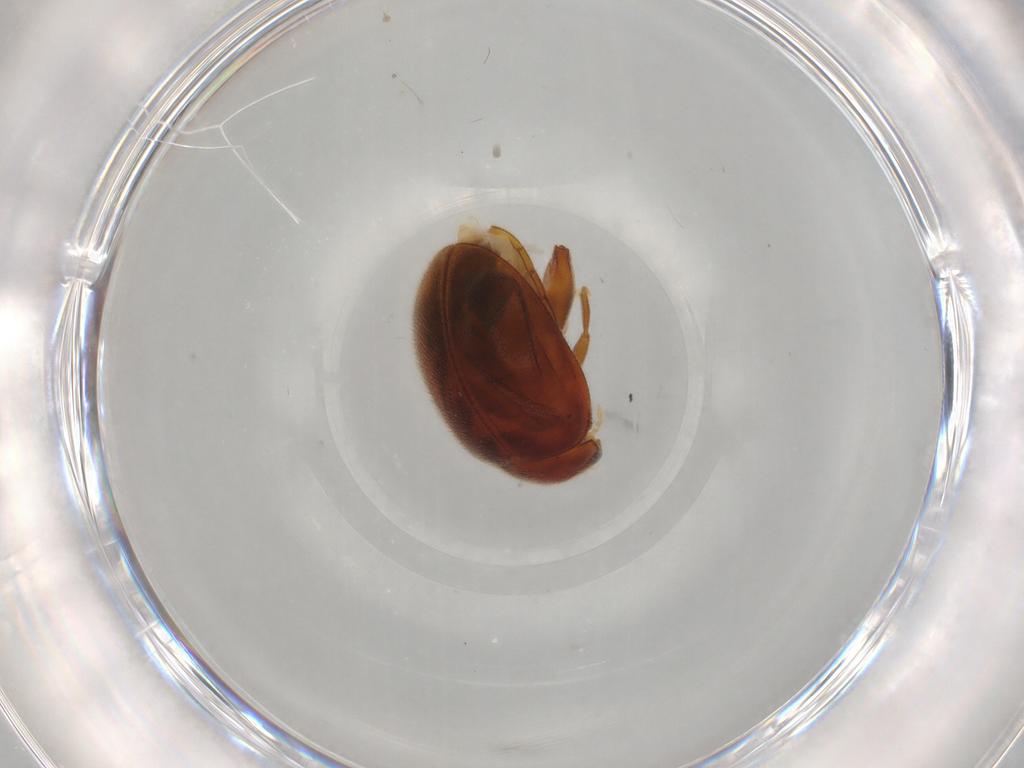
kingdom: Animalia
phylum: Arthropoda
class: Insecta
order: Coleoptera
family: Scirtidae
